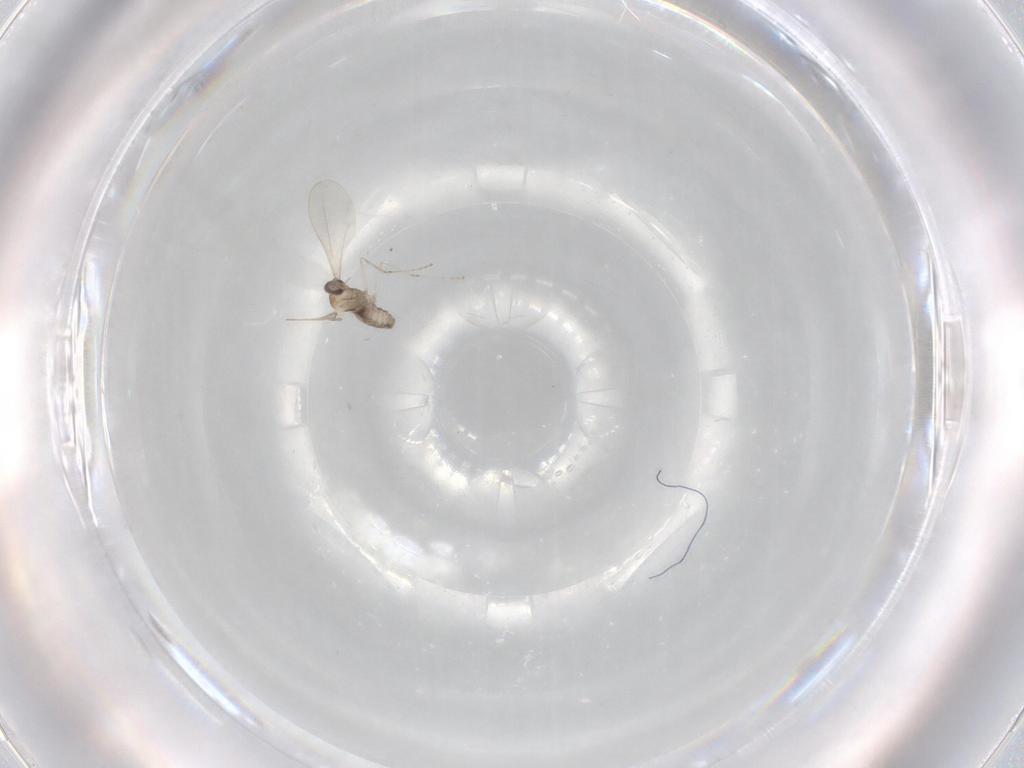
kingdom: Animalia
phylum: Arthropoda
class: Insecta
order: Diptera
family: Cecidomyiidae
